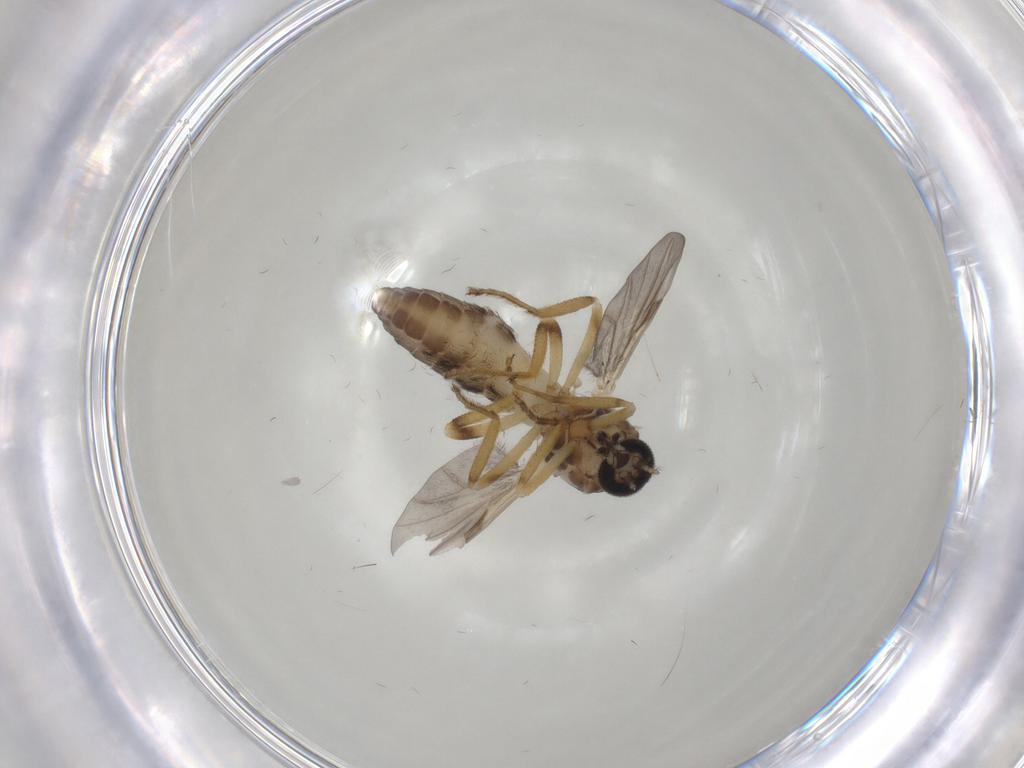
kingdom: Animalia
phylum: Arthropoda
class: Insecta
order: Diptera
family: Ceratopogonidae
